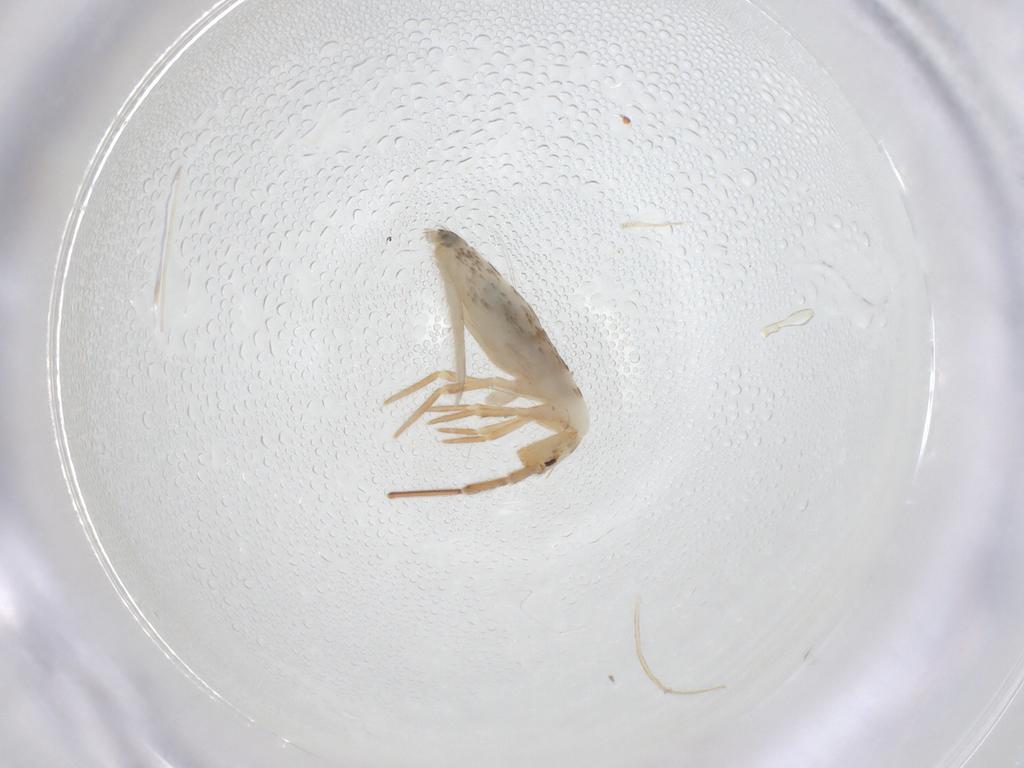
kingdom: Animalia
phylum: Arthropoda
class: Collembola
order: Entomobryomorpha
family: Entomobryidae
